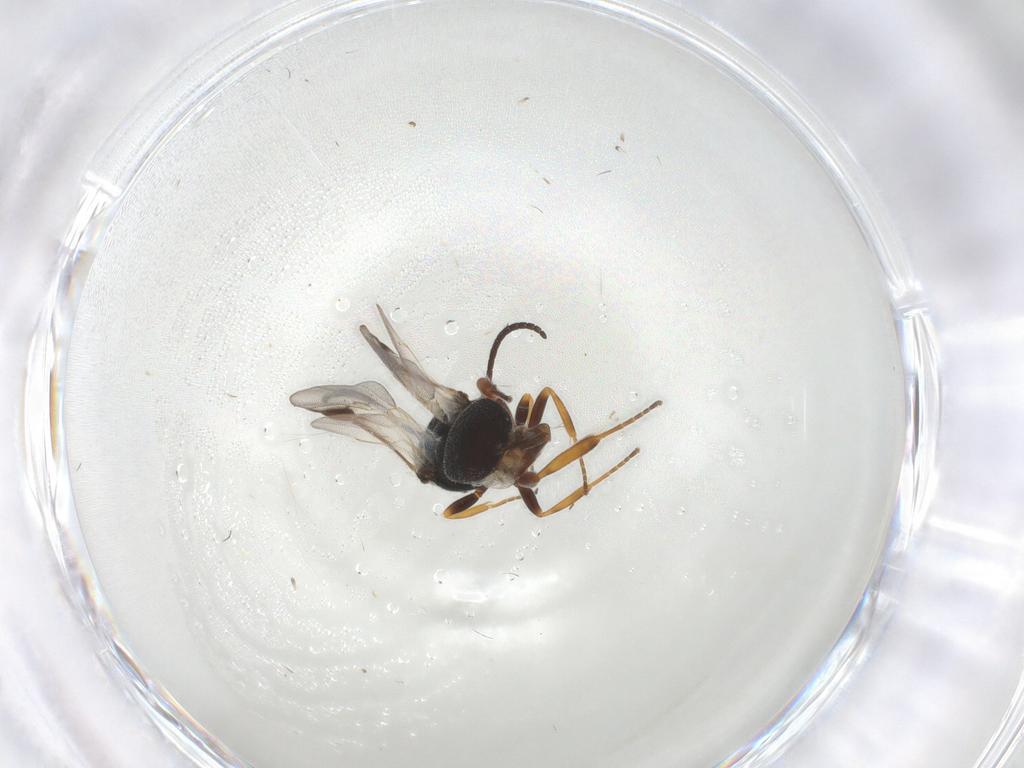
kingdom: Animalia
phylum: Arthropoda
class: Insecta
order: Hymenoptera
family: Braconidae
